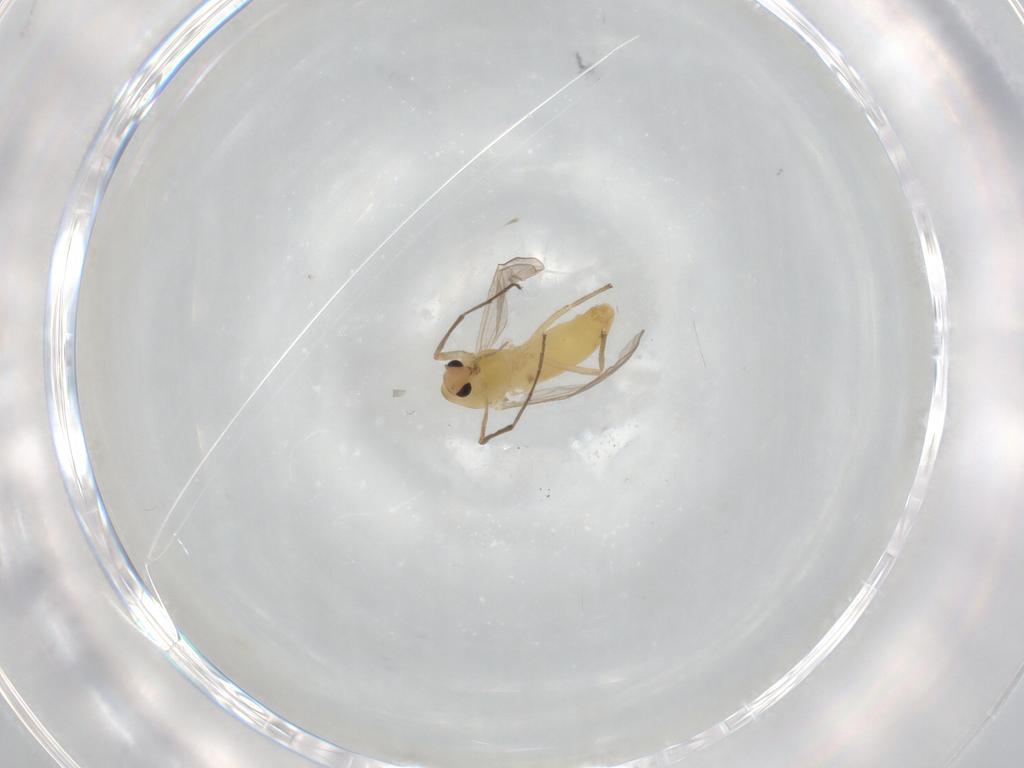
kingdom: Animalia
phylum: Arthropoda
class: Insecta
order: Diptera
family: Chironomidae
